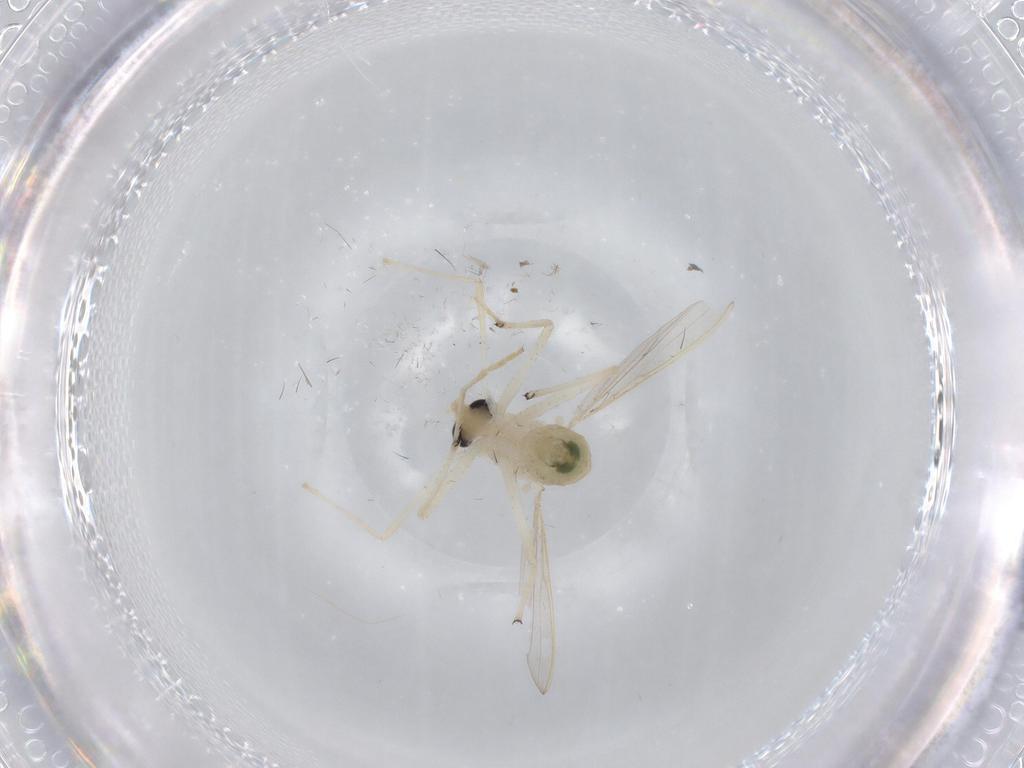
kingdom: Animalia
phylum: Arthropoda
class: Insecta
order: Diptera
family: Chironomidae
